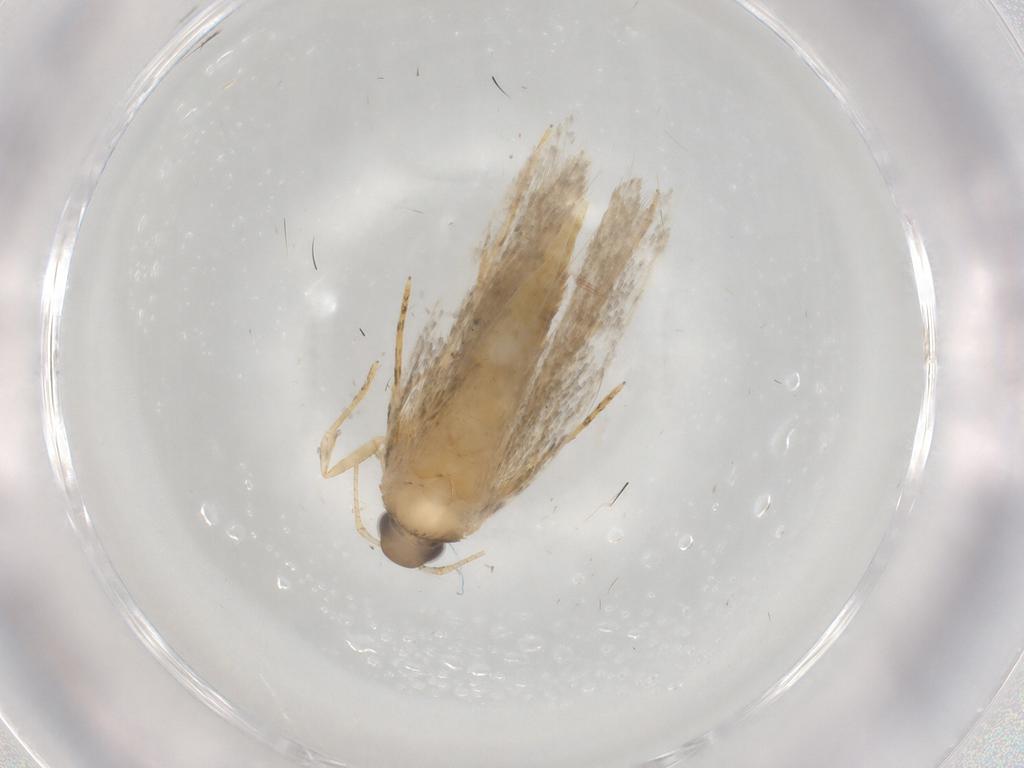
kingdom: Animalia
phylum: Arthropoda
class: Insecta
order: Lepidoptera
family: Autostichidae
